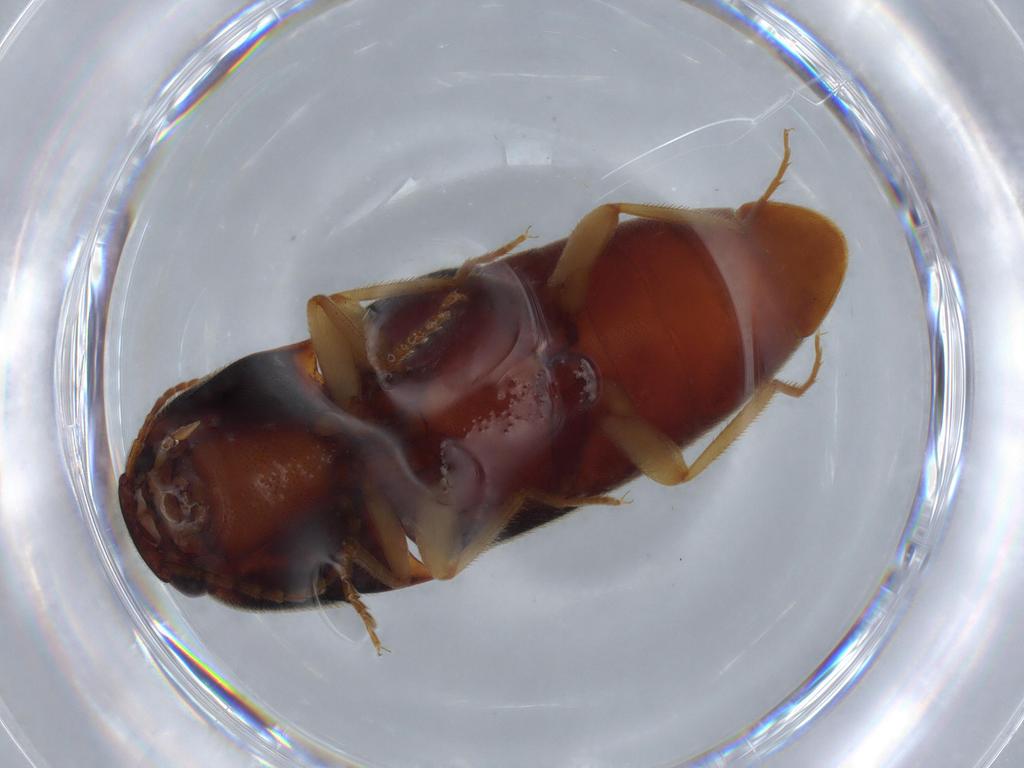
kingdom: Animalia
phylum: Arthropoda
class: Insecta
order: Coleoptera
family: Elateridae
